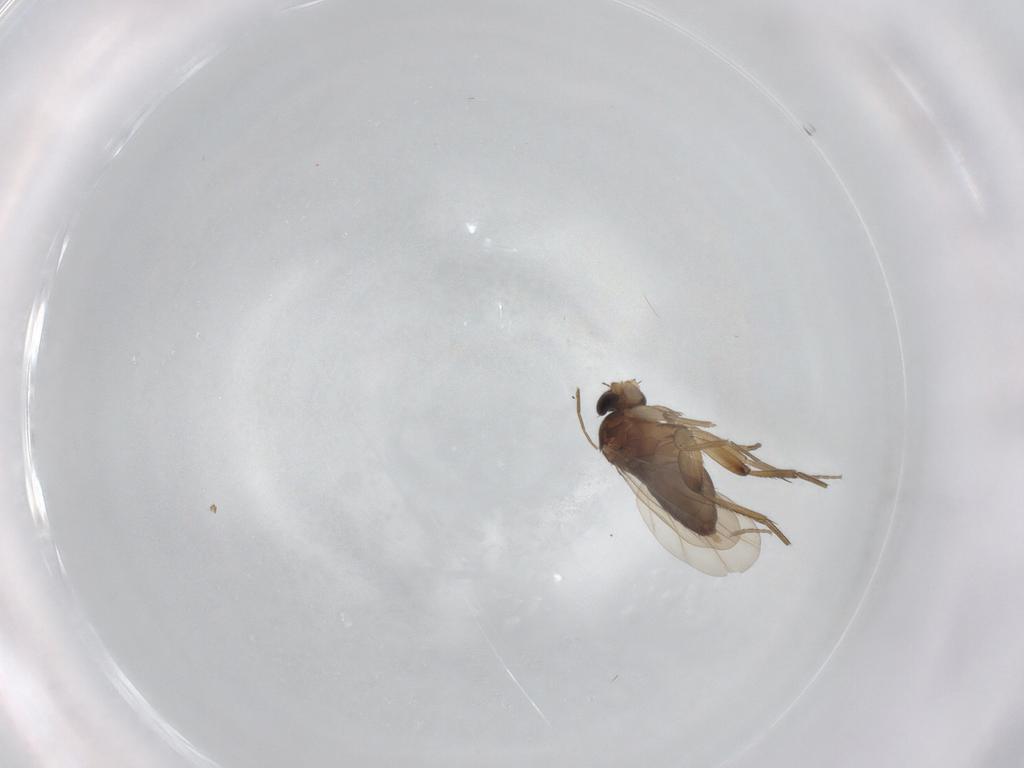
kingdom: Animalia
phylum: Arthropoda
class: Insecta
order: Diptera
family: Phoridae
